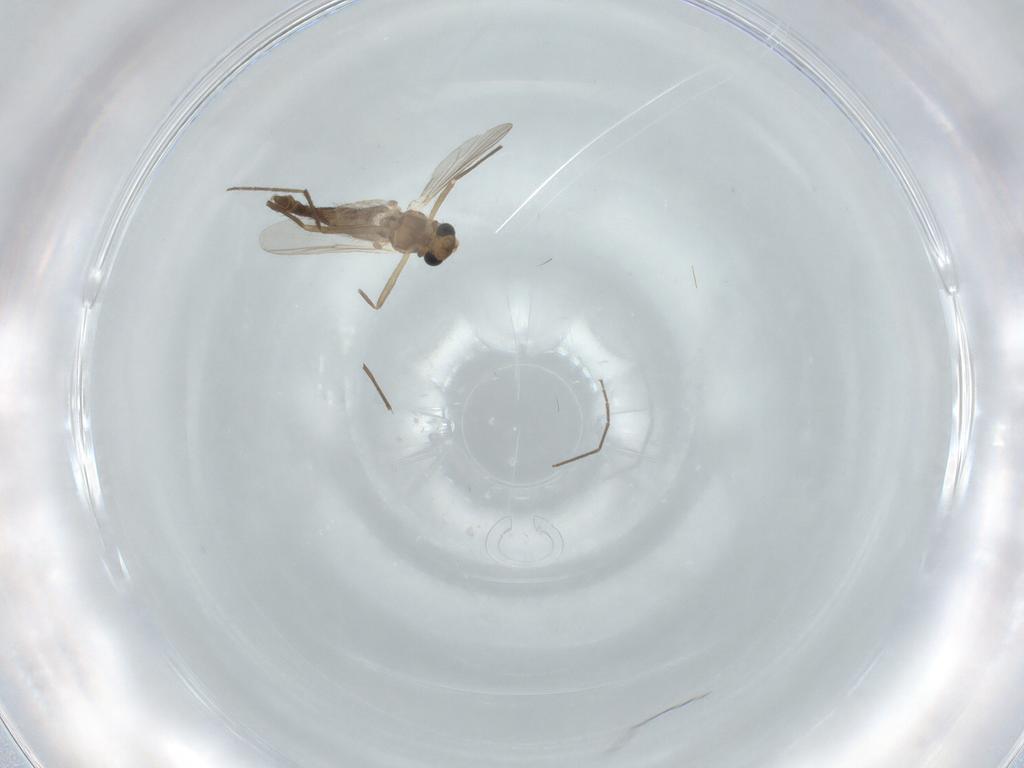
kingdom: Animalia
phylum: Arthropoda
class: Insecta
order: Diptera
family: Chironomidae
